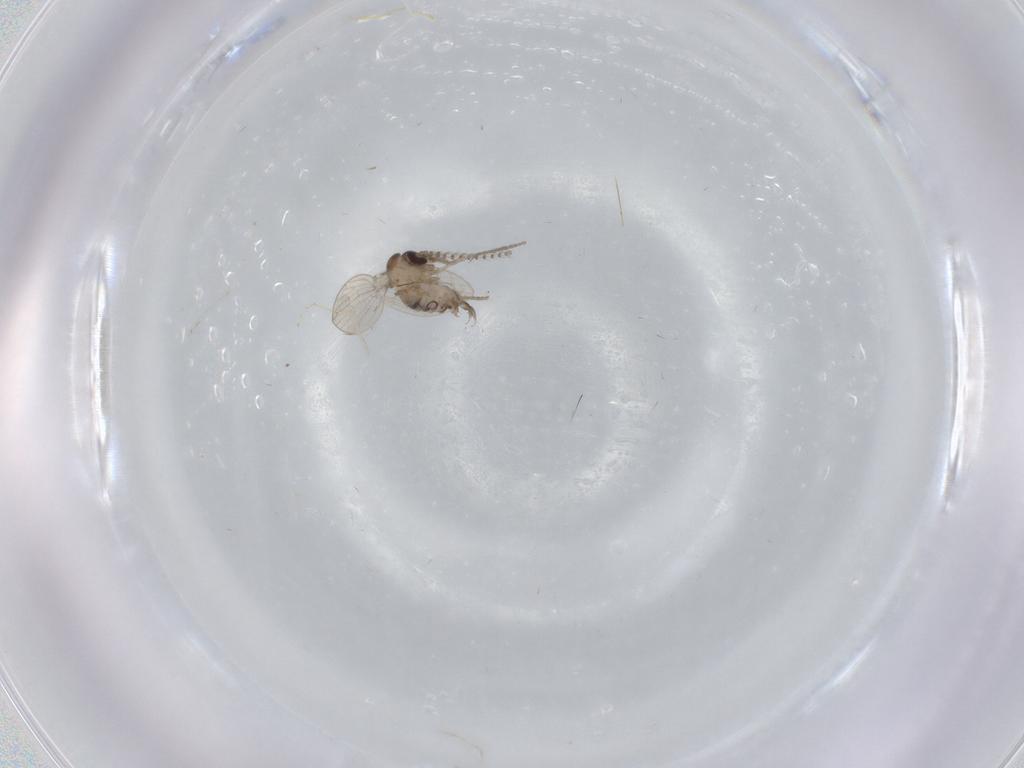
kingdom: Animalia
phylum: Arthropoda
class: Insecta
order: Diptera
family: Psychodidae
